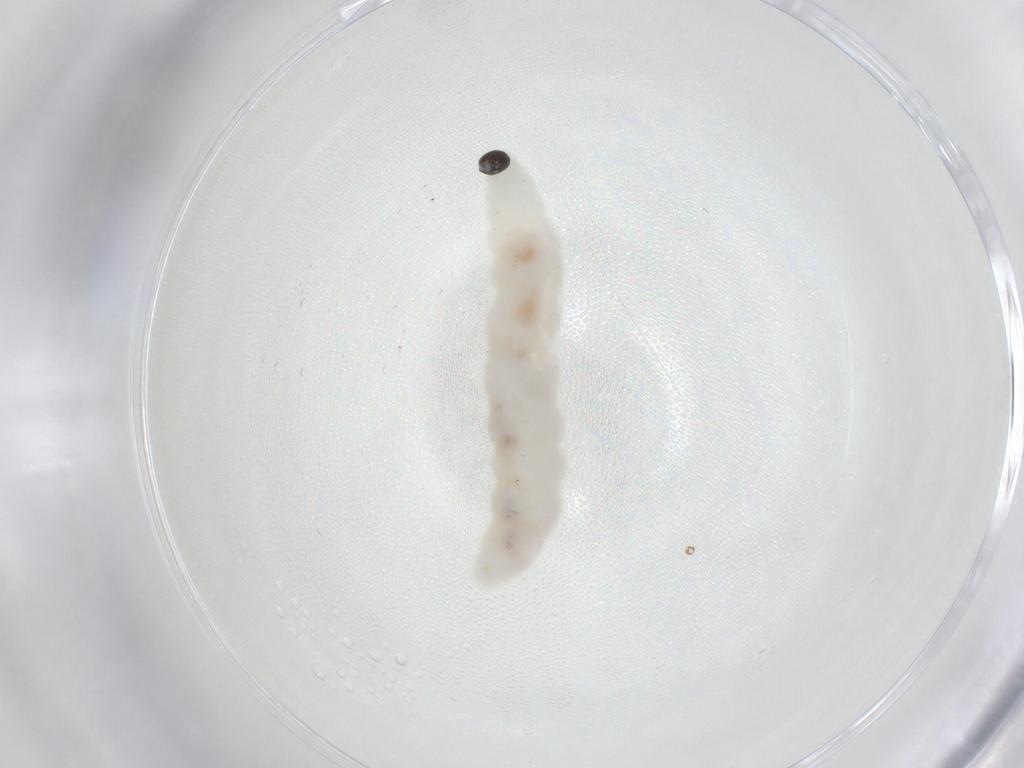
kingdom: Animalia
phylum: Arthropoda
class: Insecta
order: Diptera
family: Sciaridae
